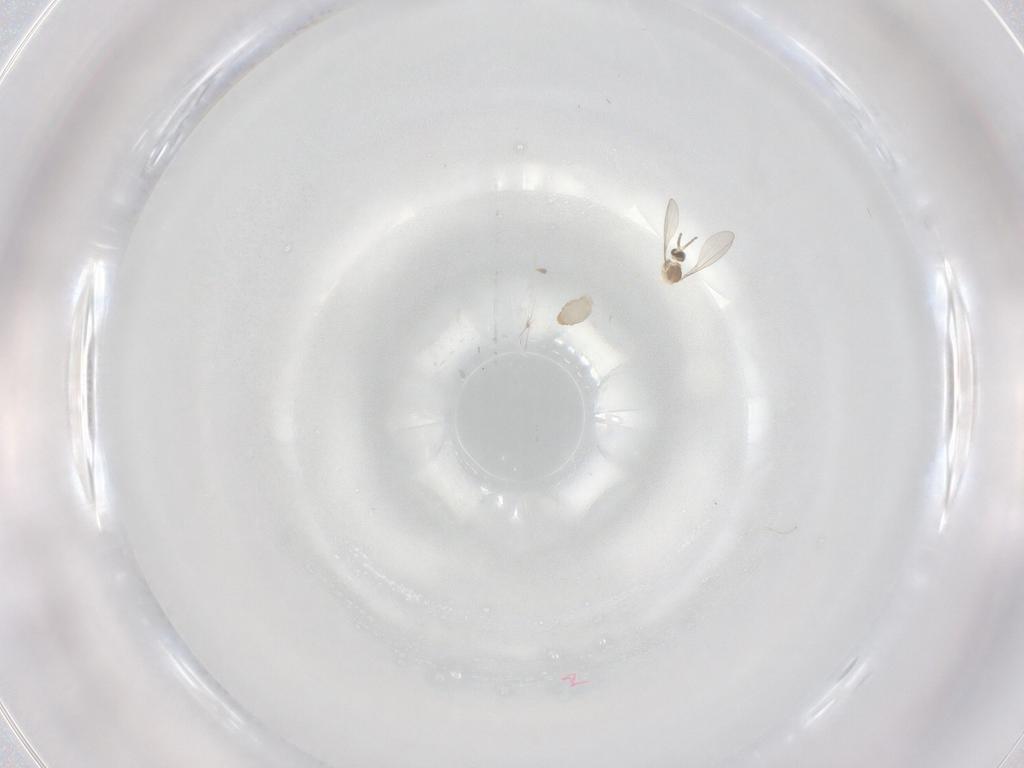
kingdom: Animalia
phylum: Arthropoda
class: Insecta
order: Diptera
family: Cecidomyiidae
